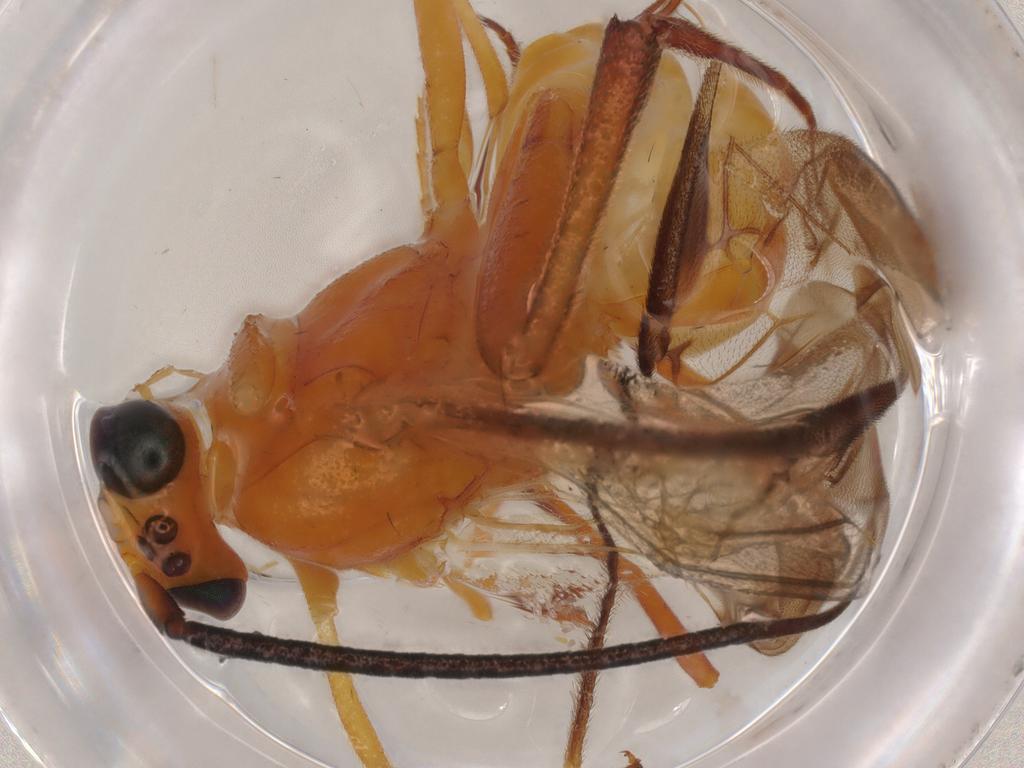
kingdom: Animalia
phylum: Arthropoda
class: Insecta
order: Hymenoptera
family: Braconidae
